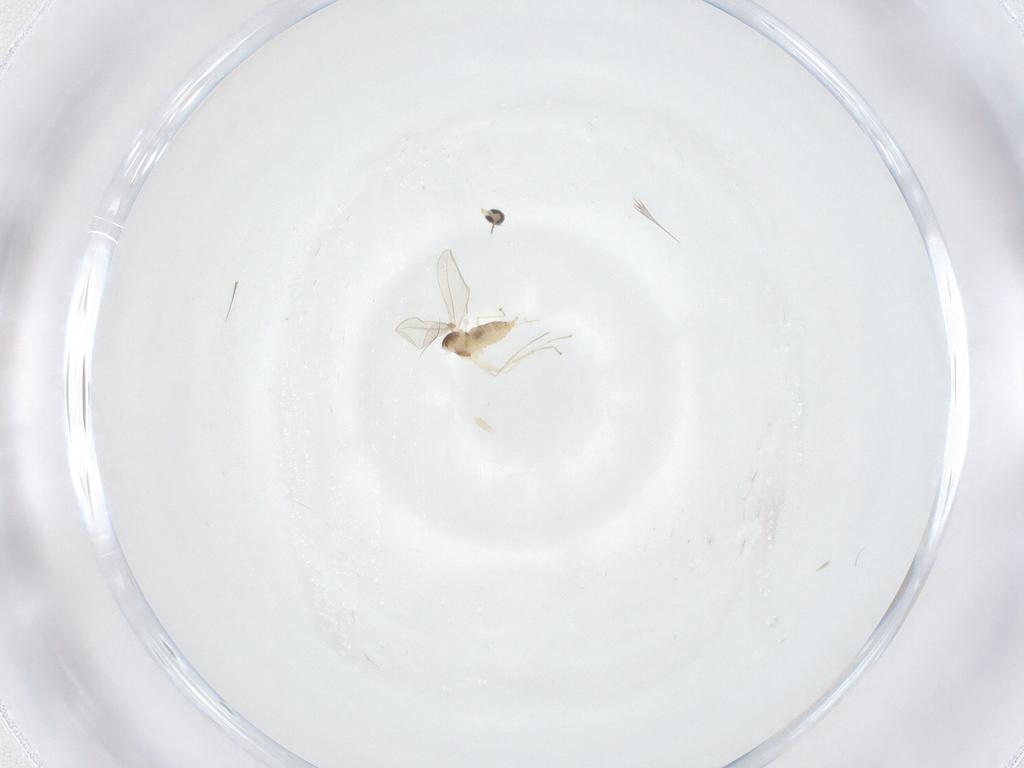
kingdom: Animalia
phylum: Arthropoda
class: Insecta
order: Diptera
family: Cecidomyiidae
